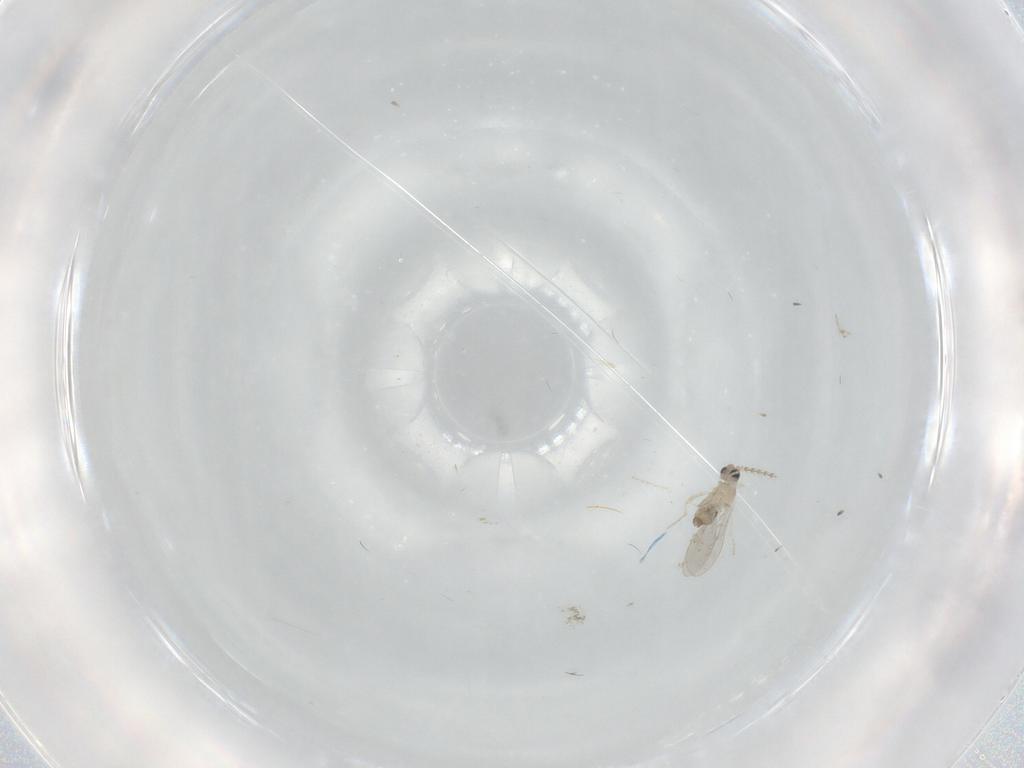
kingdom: Animalia
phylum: Arthropoda
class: Insecta
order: Diptera
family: Cecidomyiidae
